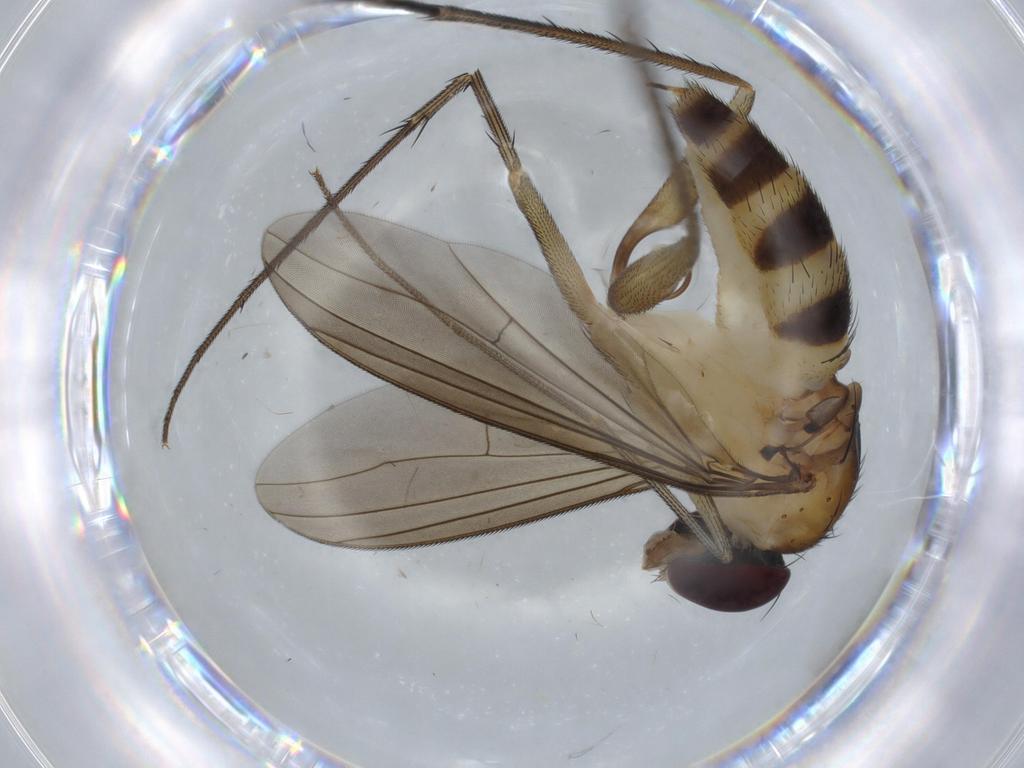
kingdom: Animalia
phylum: Arthropoda
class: Insecta
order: Diptera
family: Dolichopodidae
